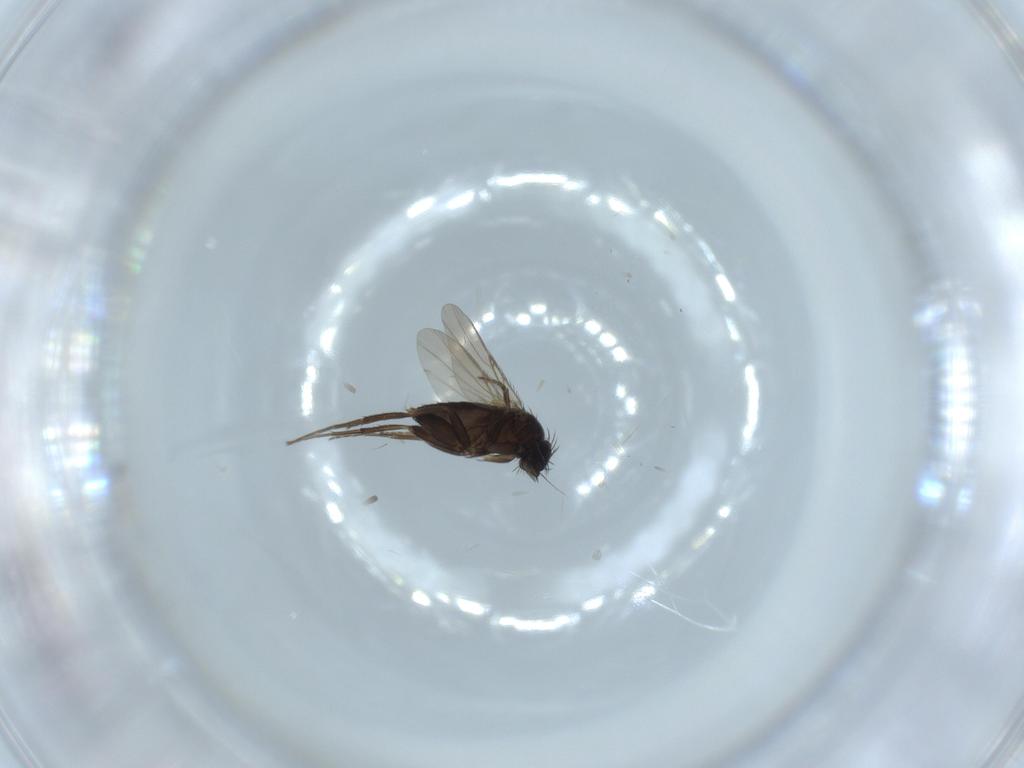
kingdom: Animalia
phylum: Arthropoda
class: Insecta
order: Diptera
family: Phoridae
